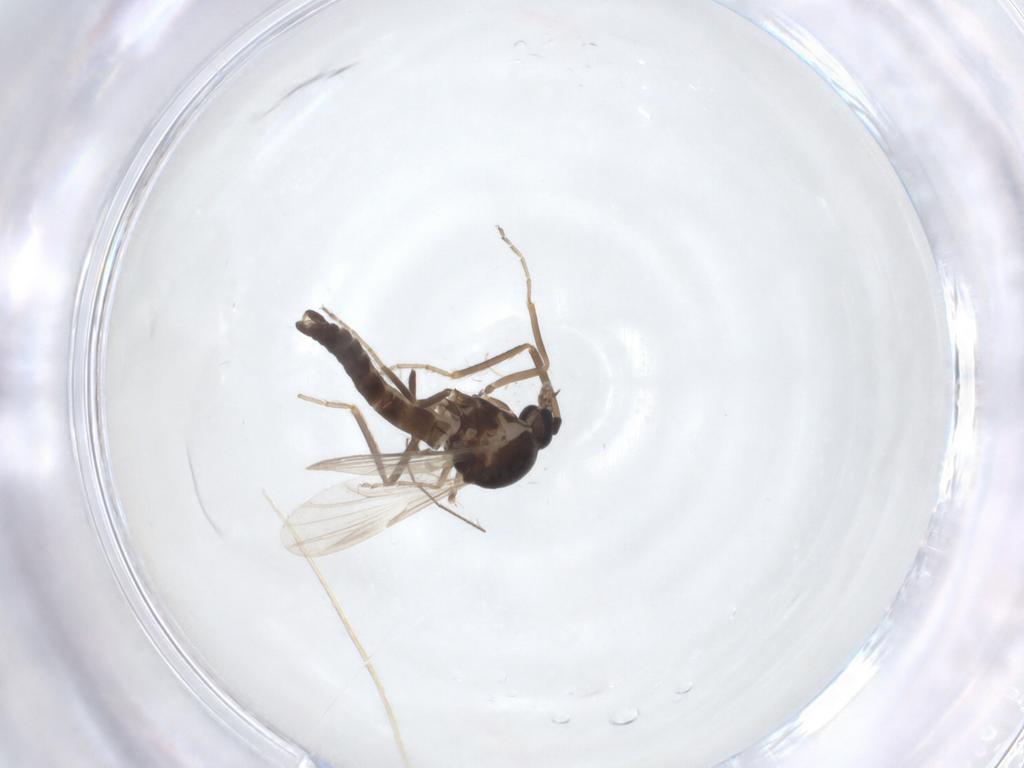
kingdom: Animalia
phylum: Arthropoda
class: Insecta
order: Diptera
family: Ceratopogonidae
